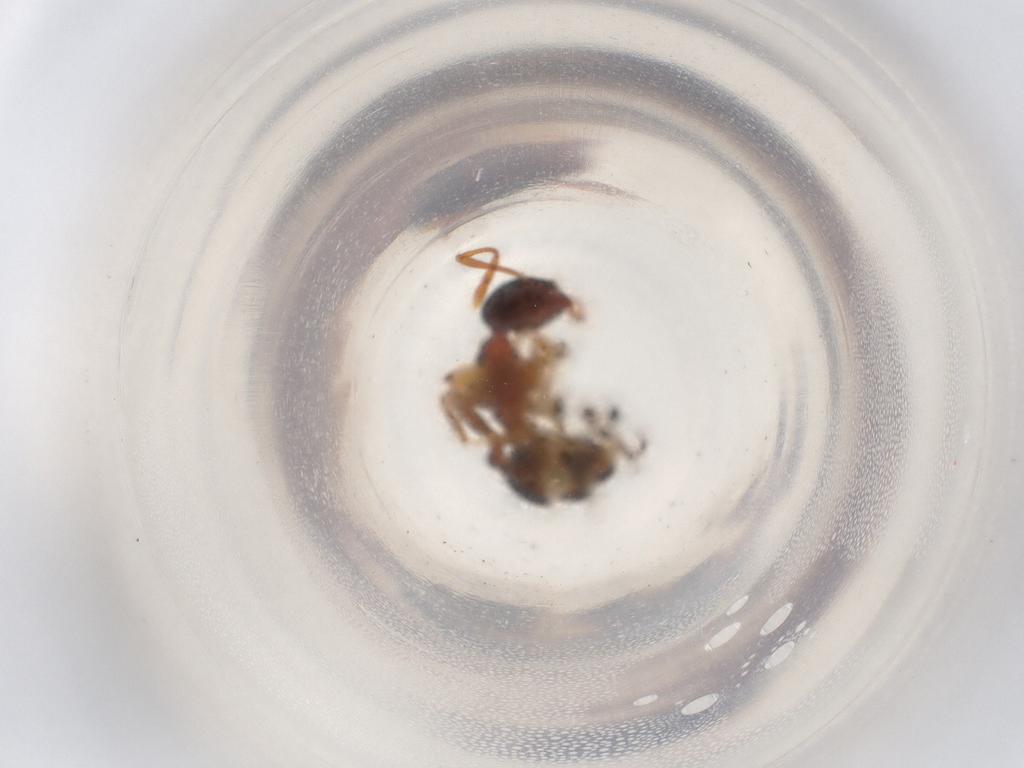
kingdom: Animalia
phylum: Arthropoda
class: Insecta
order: Hymenoptera
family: Formicidae
